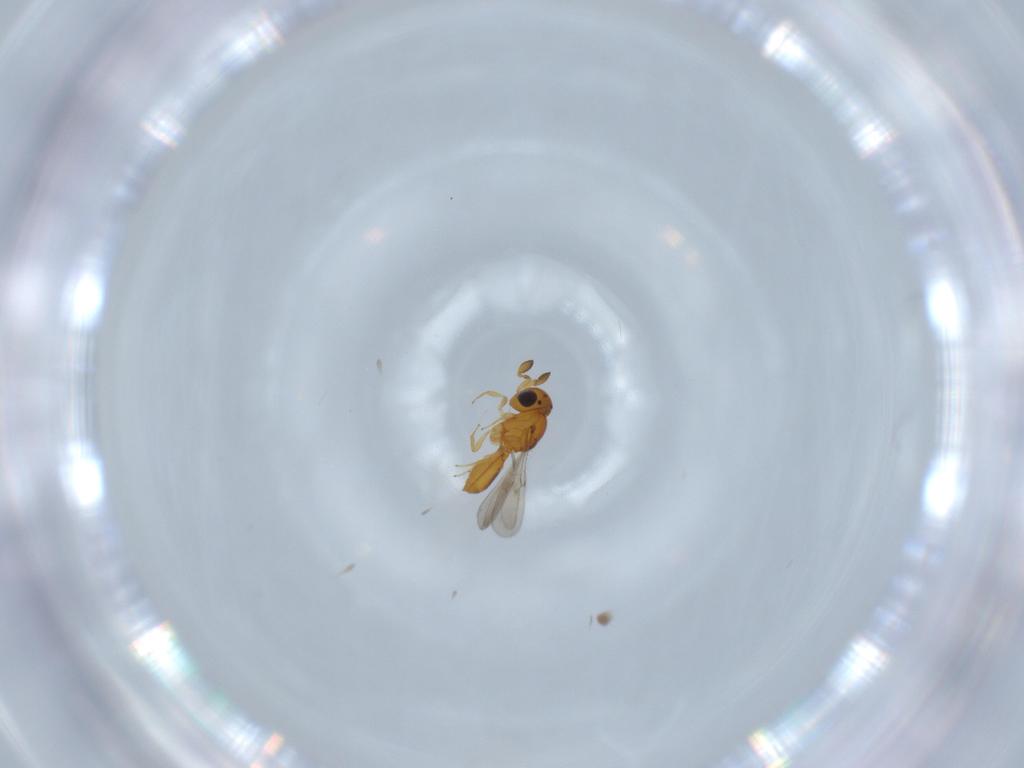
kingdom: Animalia
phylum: Arthropoda
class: Insecta
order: Hymenoptera
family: Scelionidae
